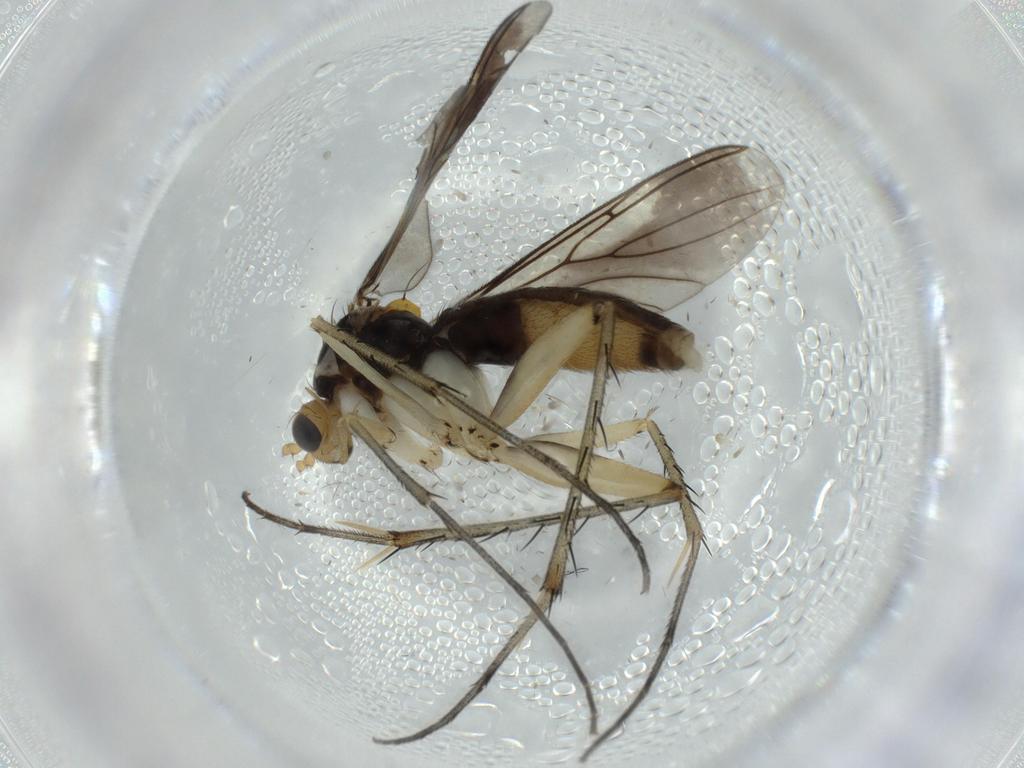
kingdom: Animalia
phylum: Arthropoda
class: Insecta
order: Diptera
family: Mycetophilidae
